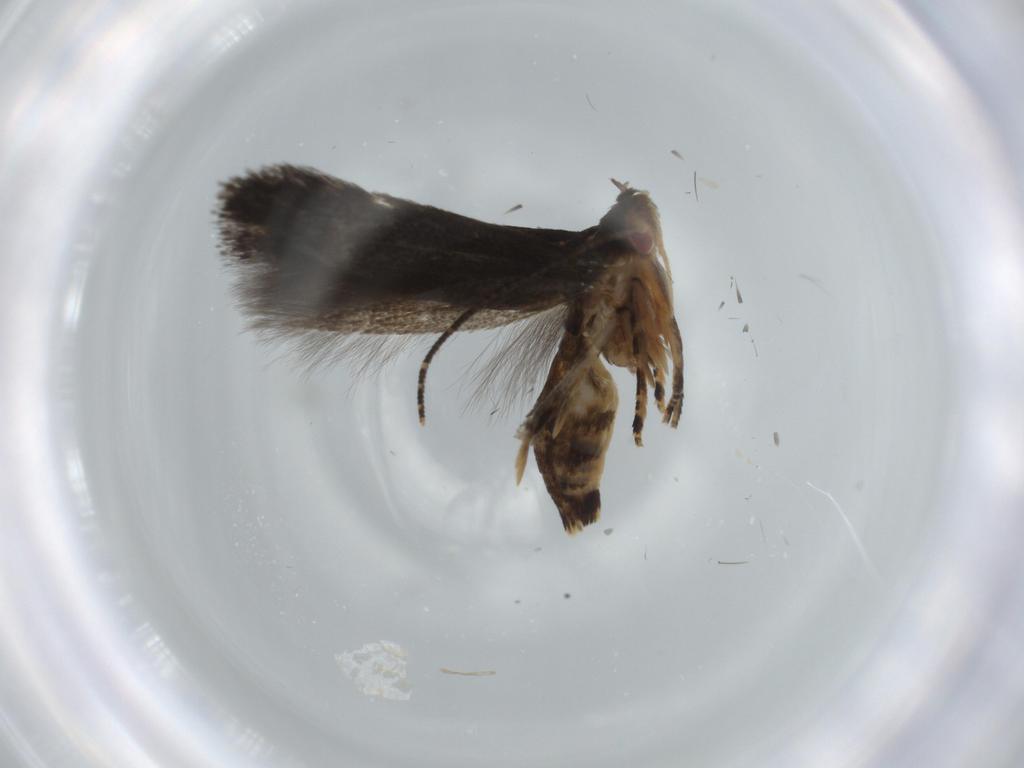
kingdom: Animalia
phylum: Arthropoda
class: Insecta
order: Lepidoptera
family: Momphidae
